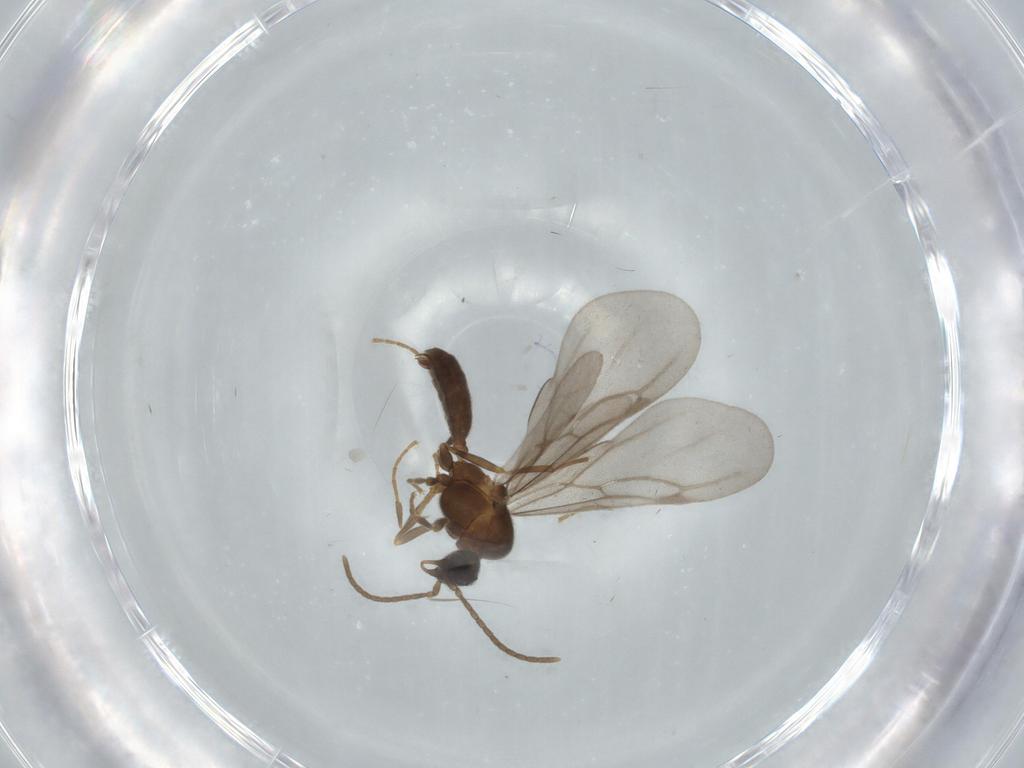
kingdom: Animalia
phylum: Arthropoda
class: Insecta
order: Hymenoptera
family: Formicidae
